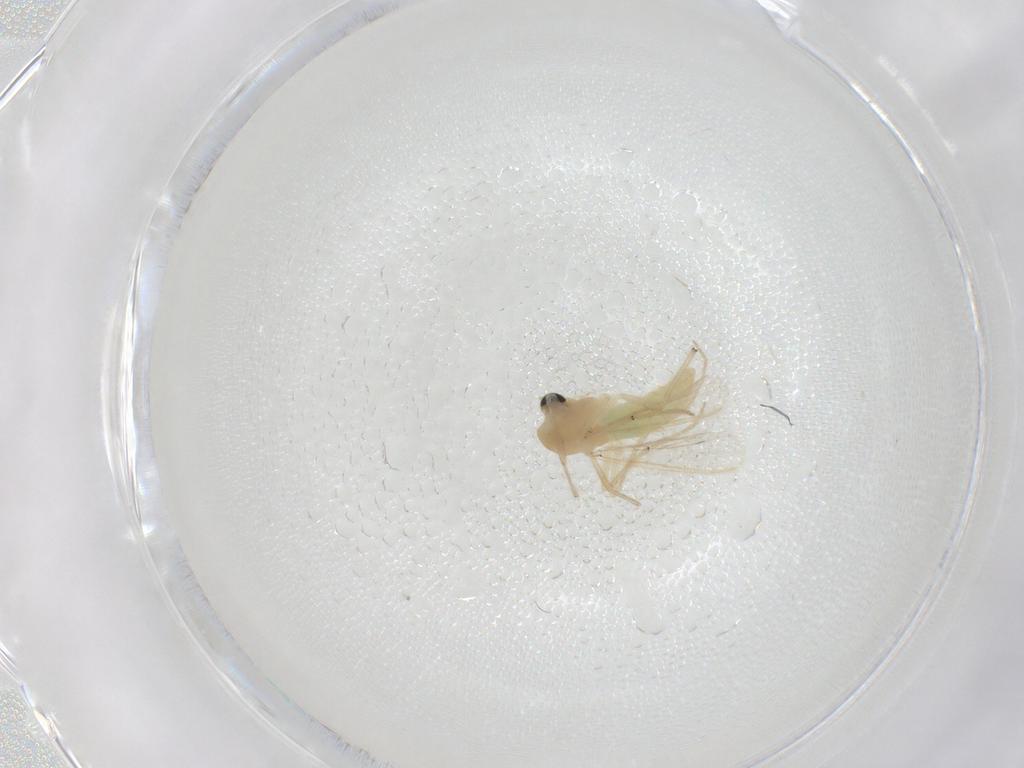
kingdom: Animalia
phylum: Arthropoda
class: Insecta
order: Diptera
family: Chironomidae
